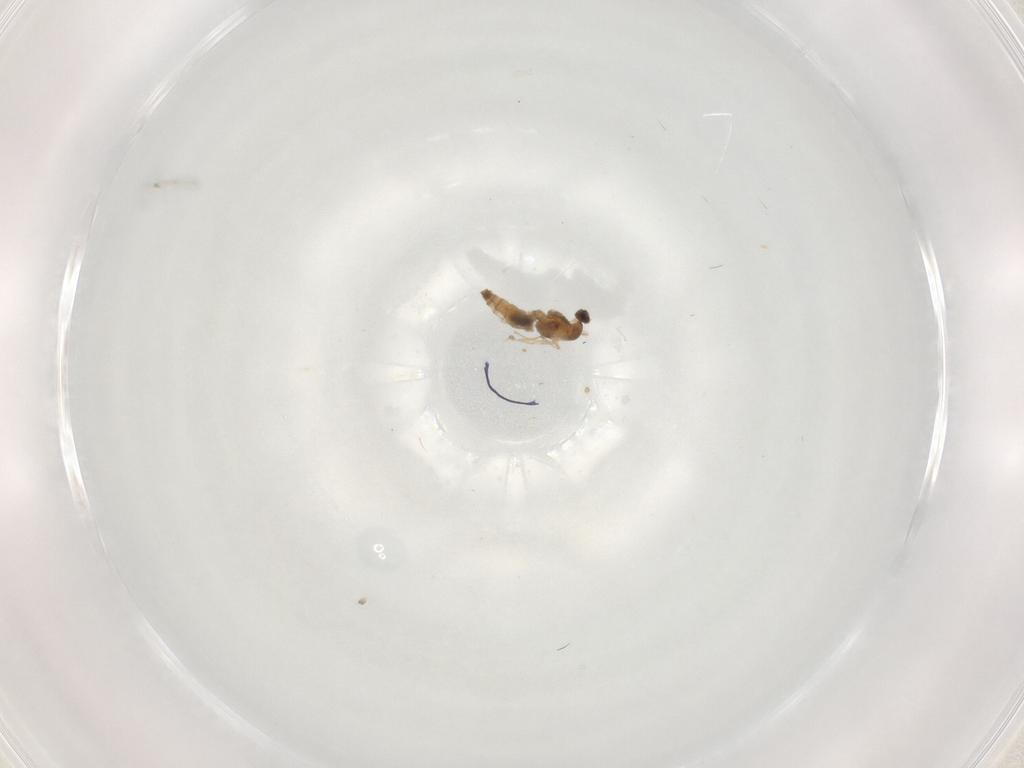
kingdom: Animalia
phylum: Arthropoda
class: Insecta
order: Diptera
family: Cecidomyiidae
